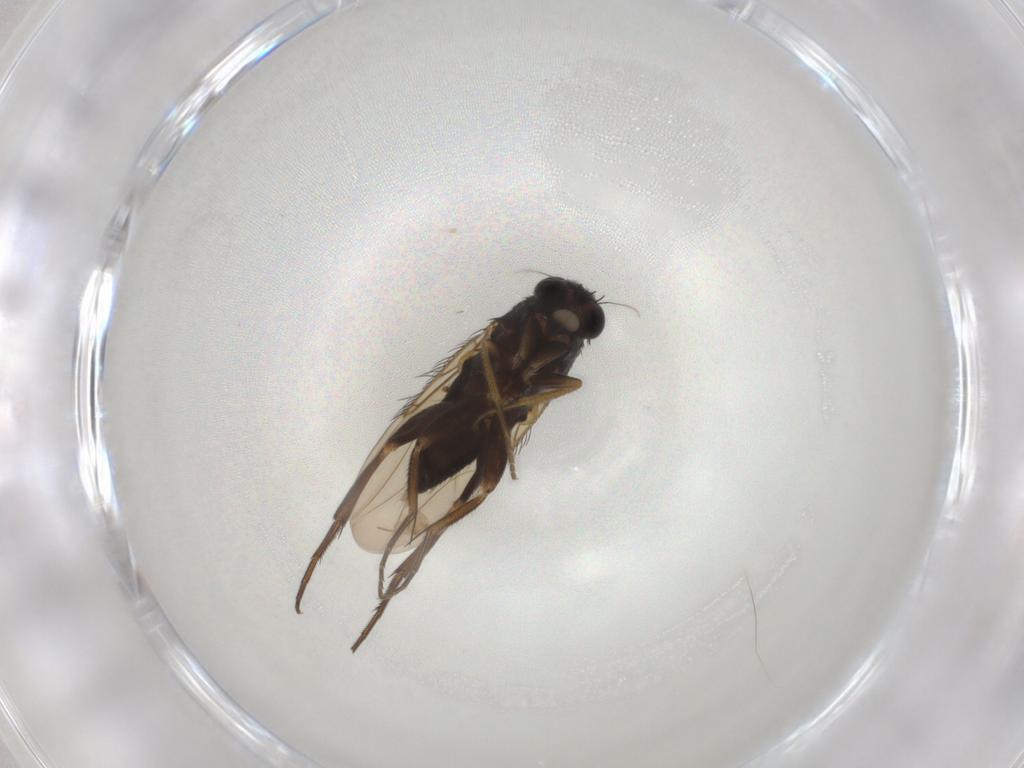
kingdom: Animalia
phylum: Arthropoda
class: Insecta
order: Diptera
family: Phoridae
